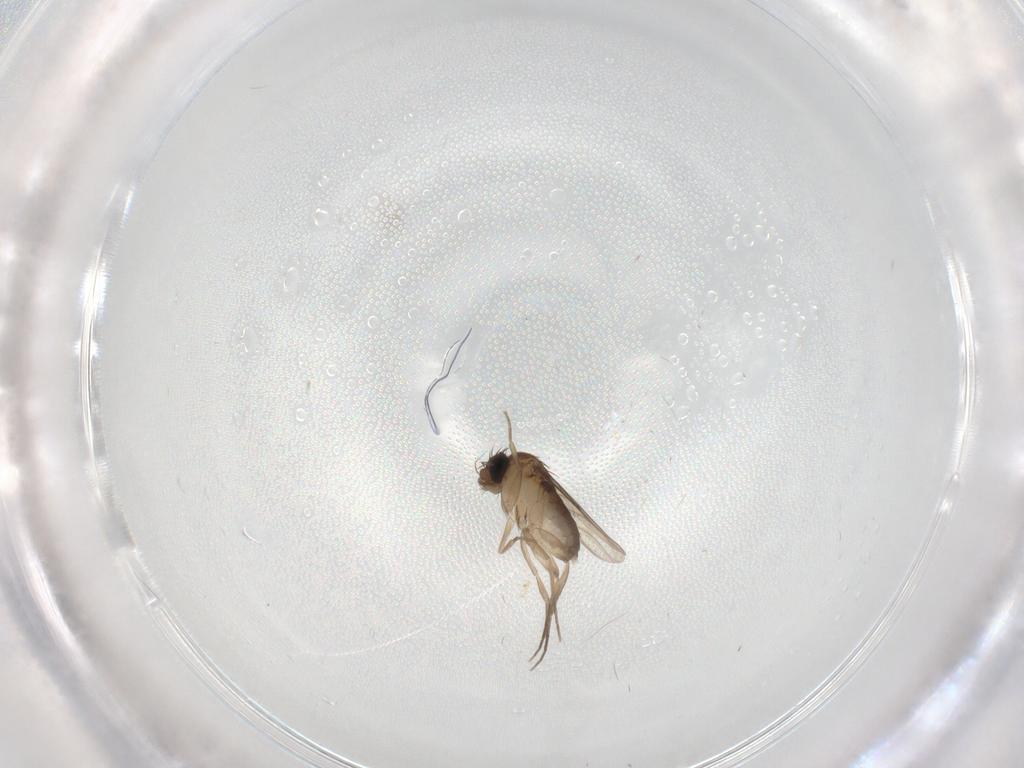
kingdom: Animalia
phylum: Arthropoda
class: Insecta
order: Diptera
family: Phoridae
